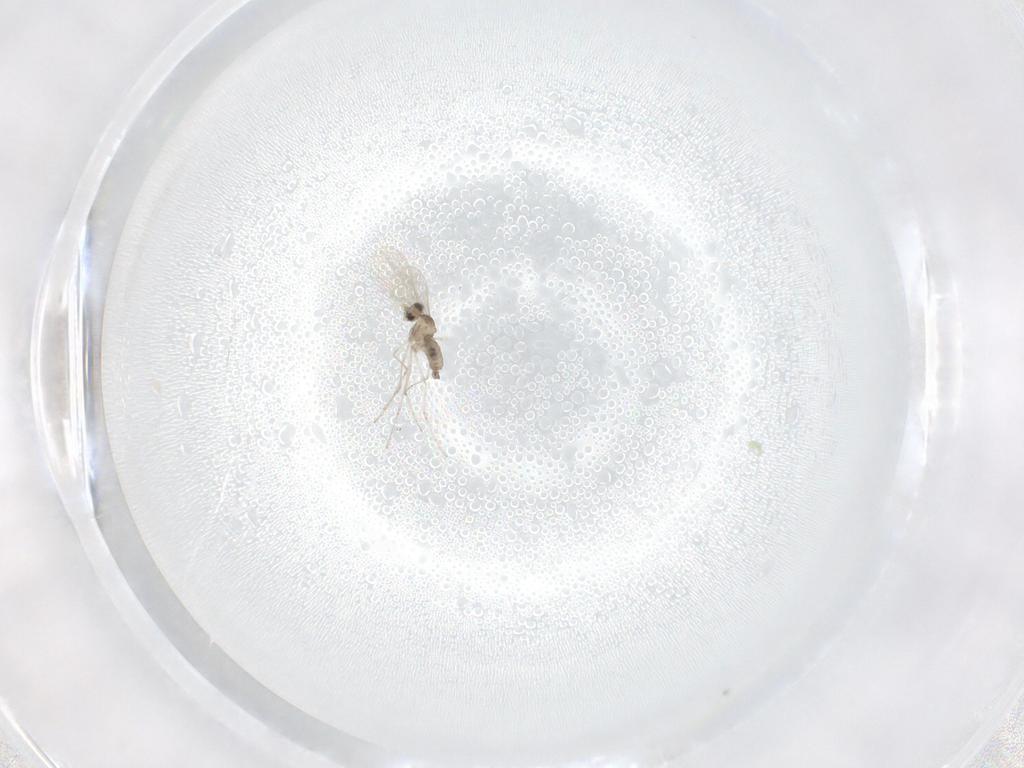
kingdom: Animalia
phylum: Arthropoda
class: Insecta
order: Diptera
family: Cecidomyiidae
